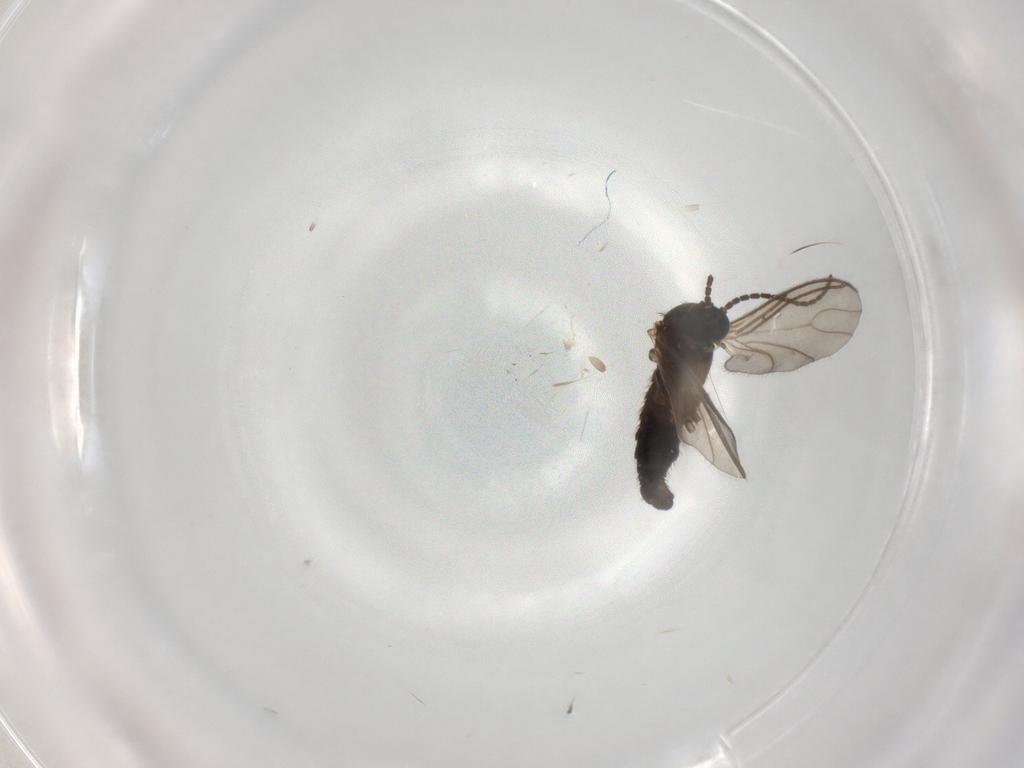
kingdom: Animalia
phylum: Arthropoda
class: Insecta
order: Diptera
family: Sciaridae
